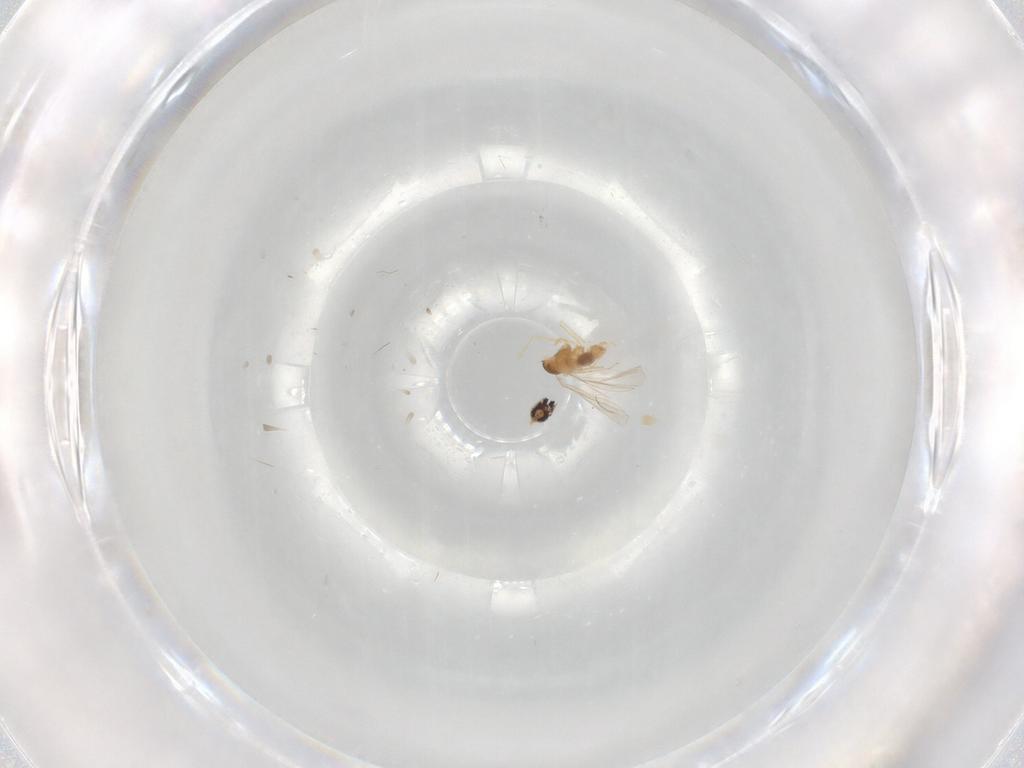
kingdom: Animalia
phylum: Arthropoda
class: Insecta
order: Diptera
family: Cecidomyiidae
